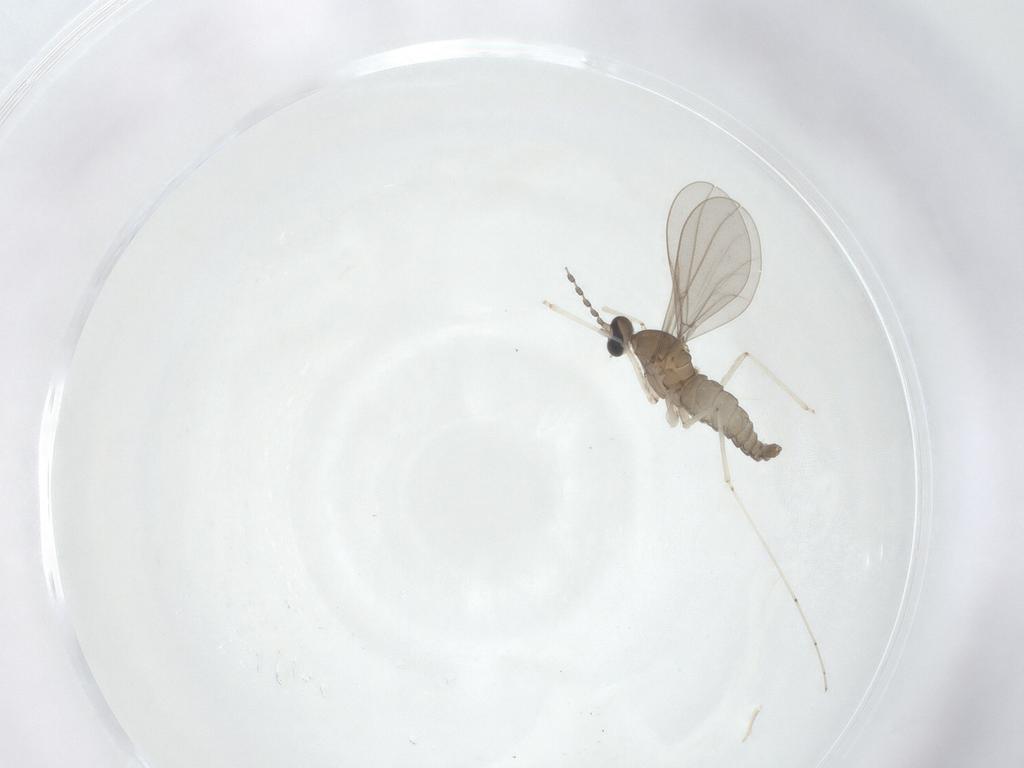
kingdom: Animalia
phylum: Arthropoda
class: Insecta
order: Diptera
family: Cecidomyiidae
